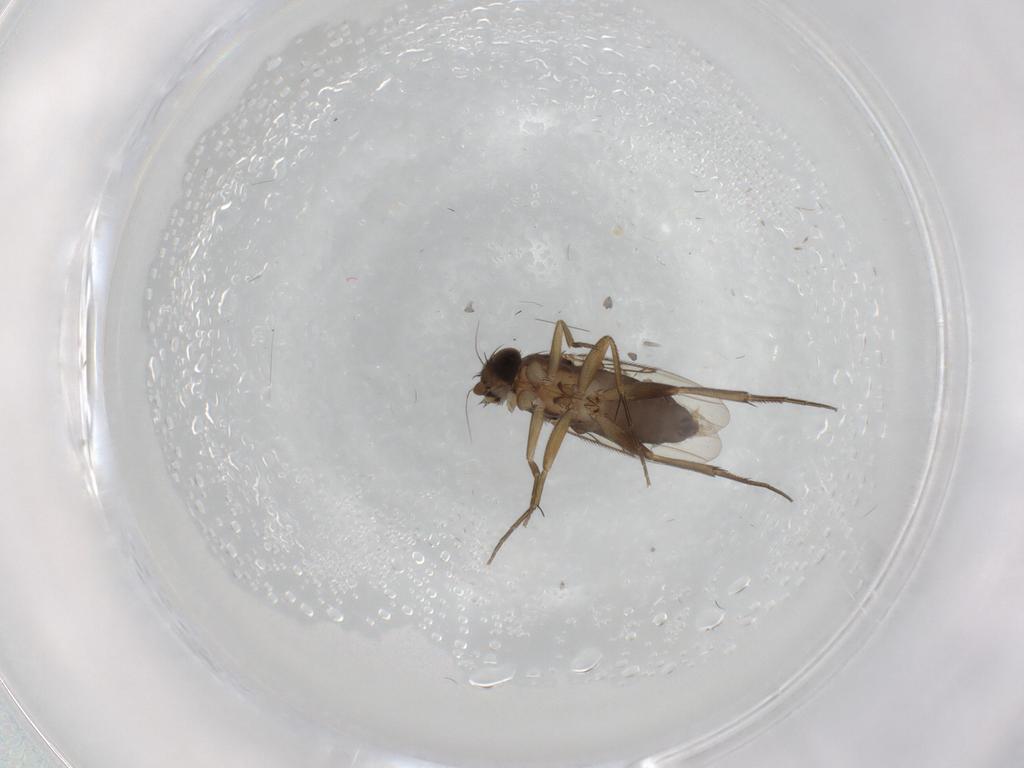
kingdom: Animalia
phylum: Arthropoda
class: Insecta
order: Diptera
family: Phoridae
